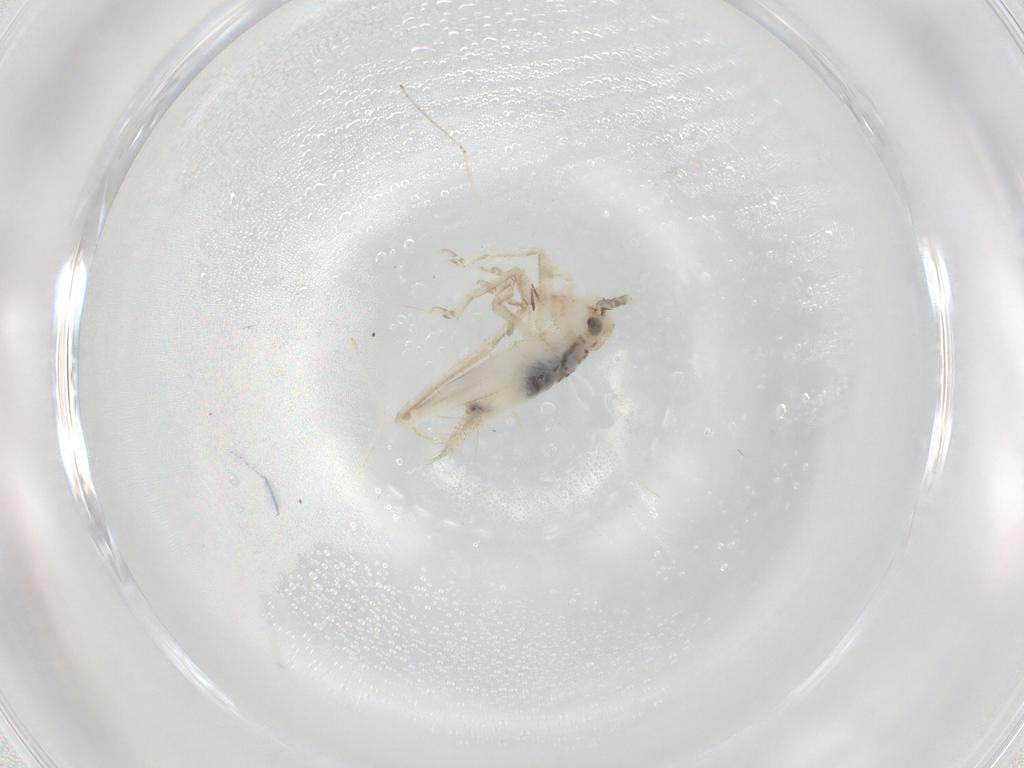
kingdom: Animalia
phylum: Arthropoda
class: Insecta
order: Orthoptera
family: Trigonidiidae
